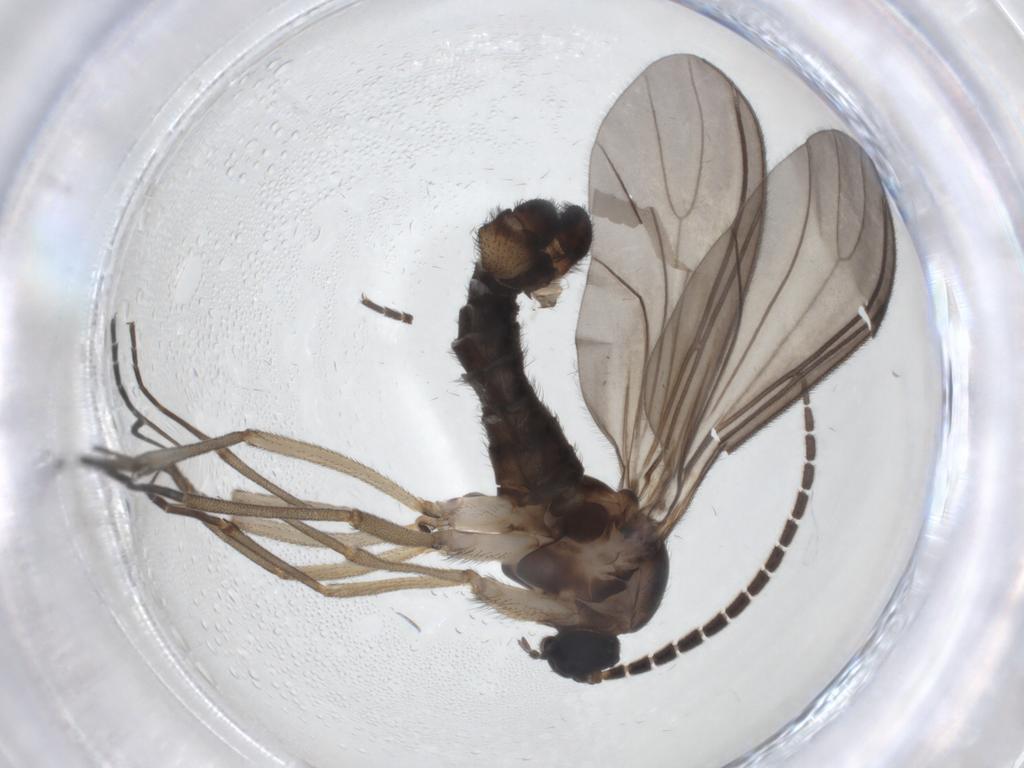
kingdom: Animalia
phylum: Arthropoda
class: Insecta
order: Diptera
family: Sciaridae
